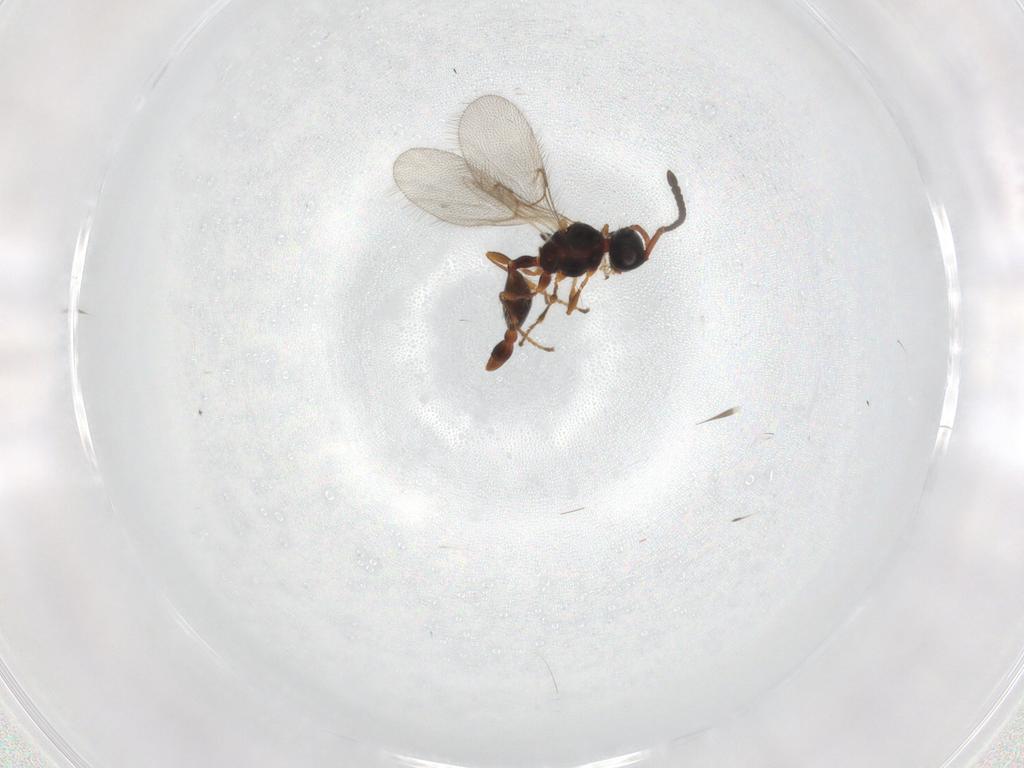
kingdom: Animalia
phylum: Arthropoda
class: Insecta
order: Hymenoptera
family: Diapriidae
